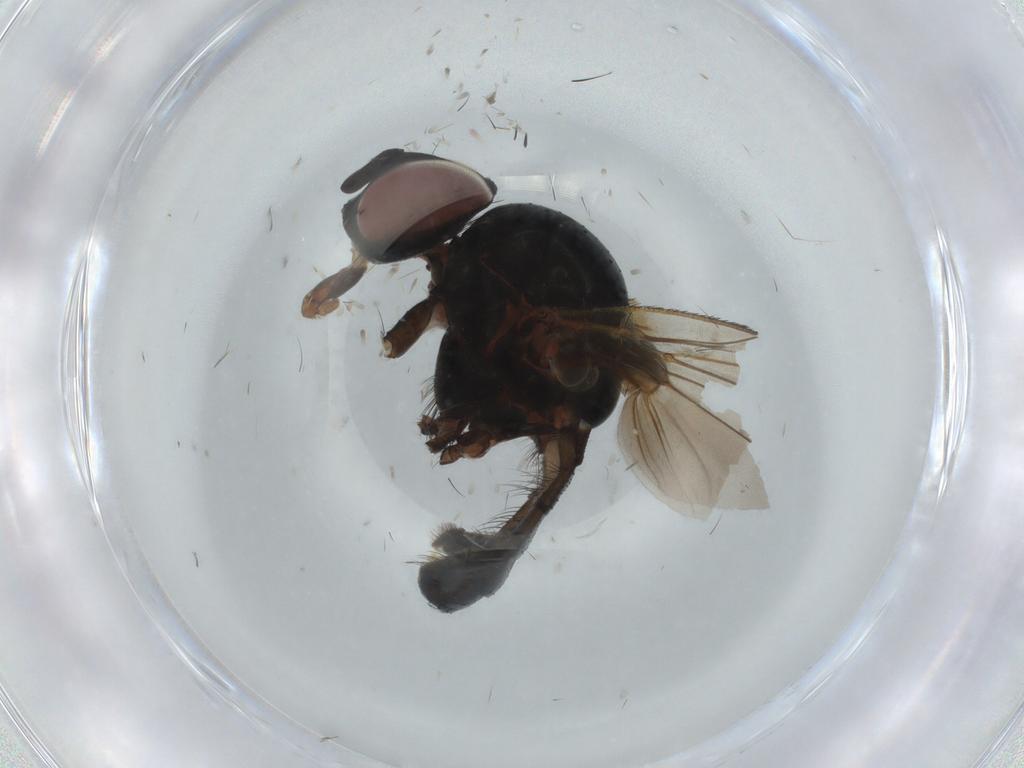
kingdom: Animalia
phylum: Arthropoda
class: Insecta
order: Diptera
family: Anthomyiidae
